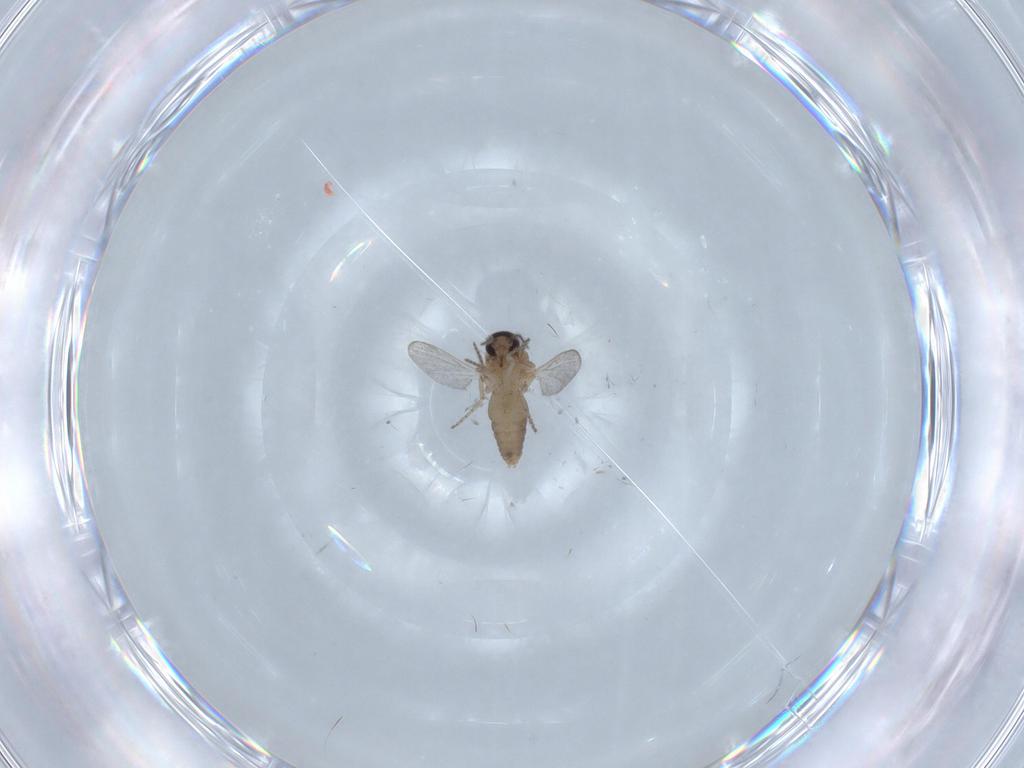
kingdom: Animalia
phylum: Arthropoda
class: Insecta
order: Diptera
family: Ceratopogonidae
